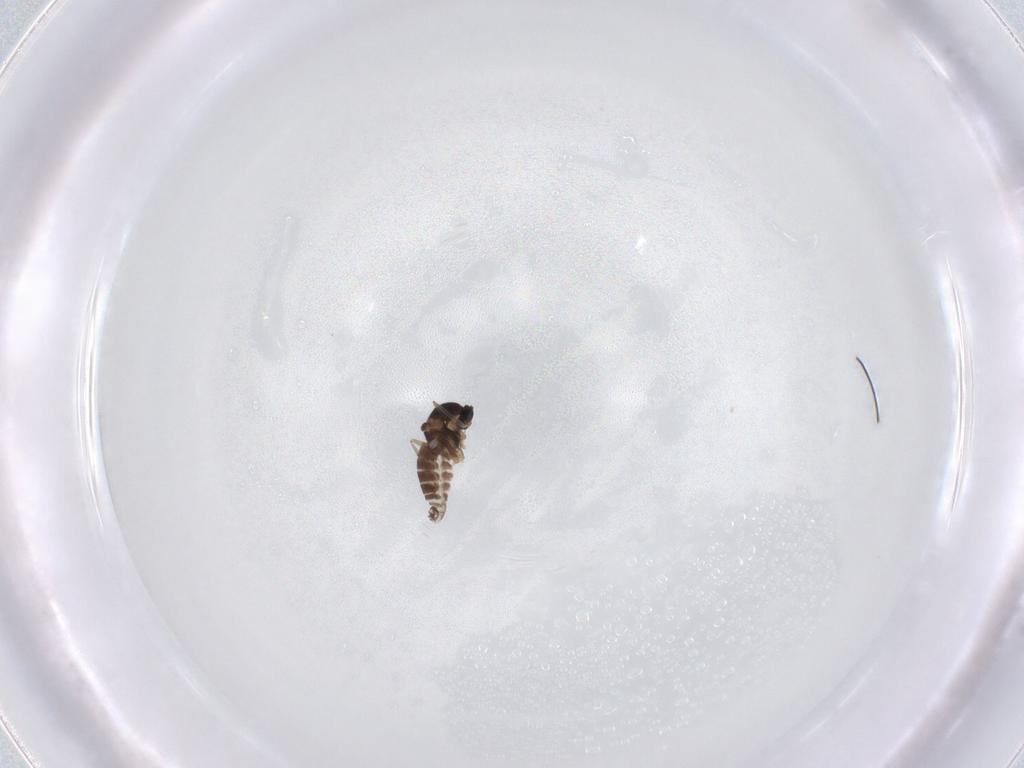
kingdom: Animalia
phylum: Arthropoda
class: Insecta
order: Diptera
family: Cecidomyiidae
